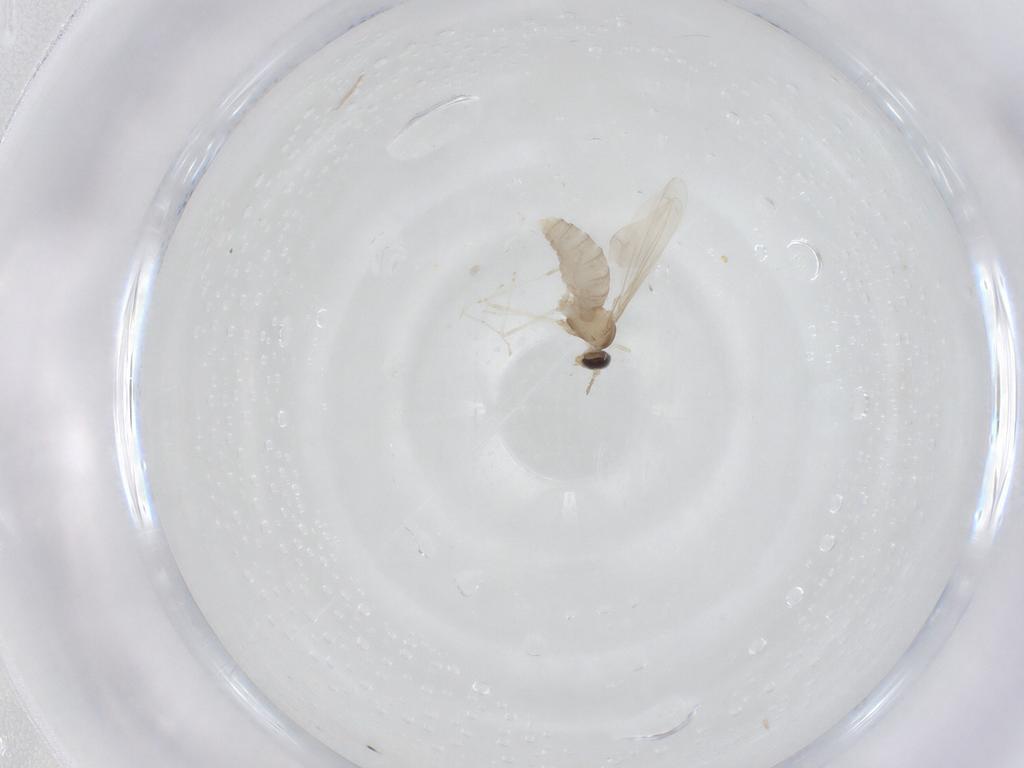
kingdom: Animalia
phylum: Arthropoda
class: Insecta
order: Diptera
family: Cecidomyiidae
